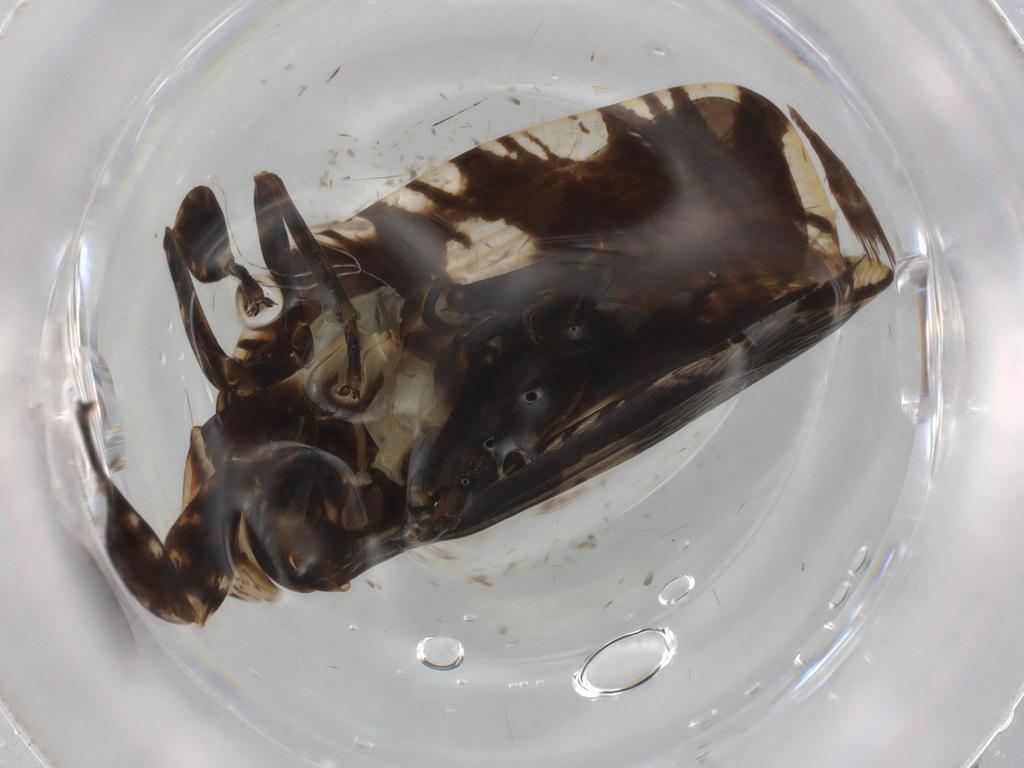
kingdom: Animalia
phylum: Arthropoda
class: Insecta
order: Hemiptera
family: Lophopidae
